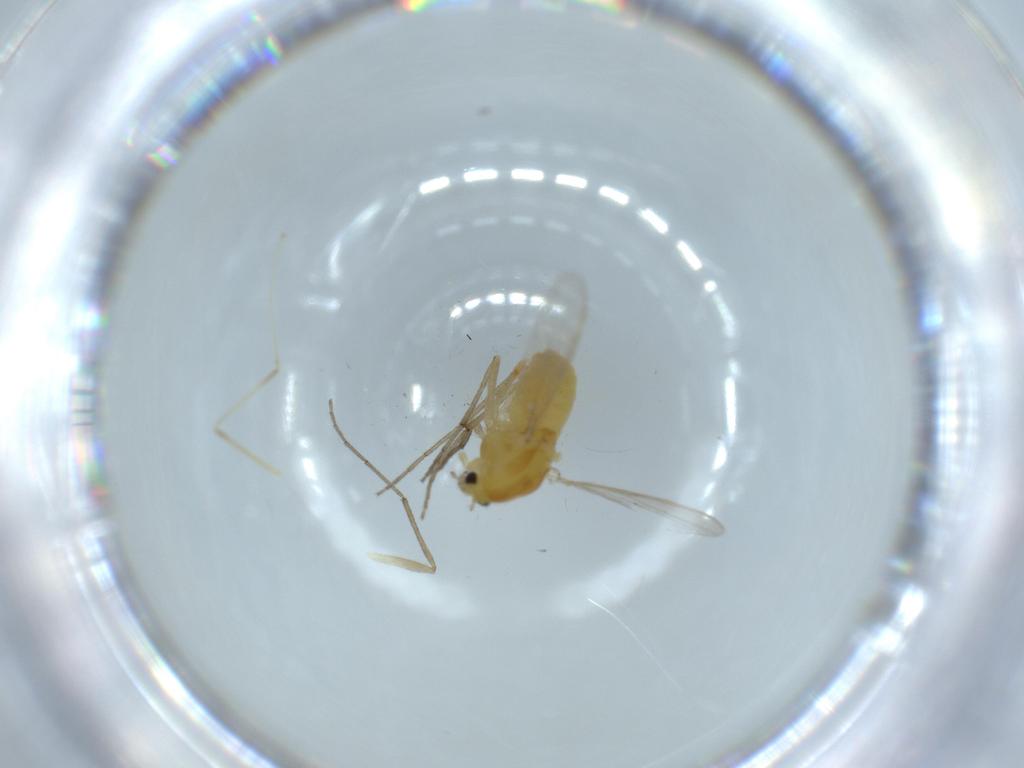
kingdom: Animalia
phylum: Arthropoda
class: Insecta
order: Diptera
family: Chironomidae
